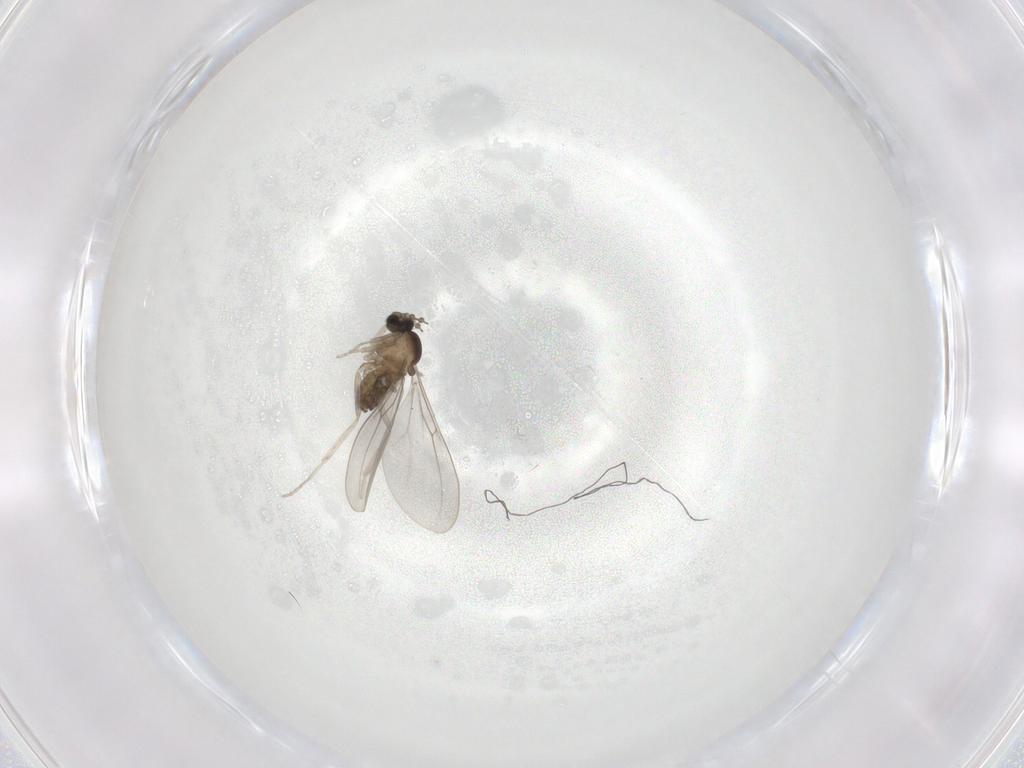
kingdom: Animalia
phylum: Arthropoda
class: Insecta
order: Diptera
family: Cecidomyiidae
